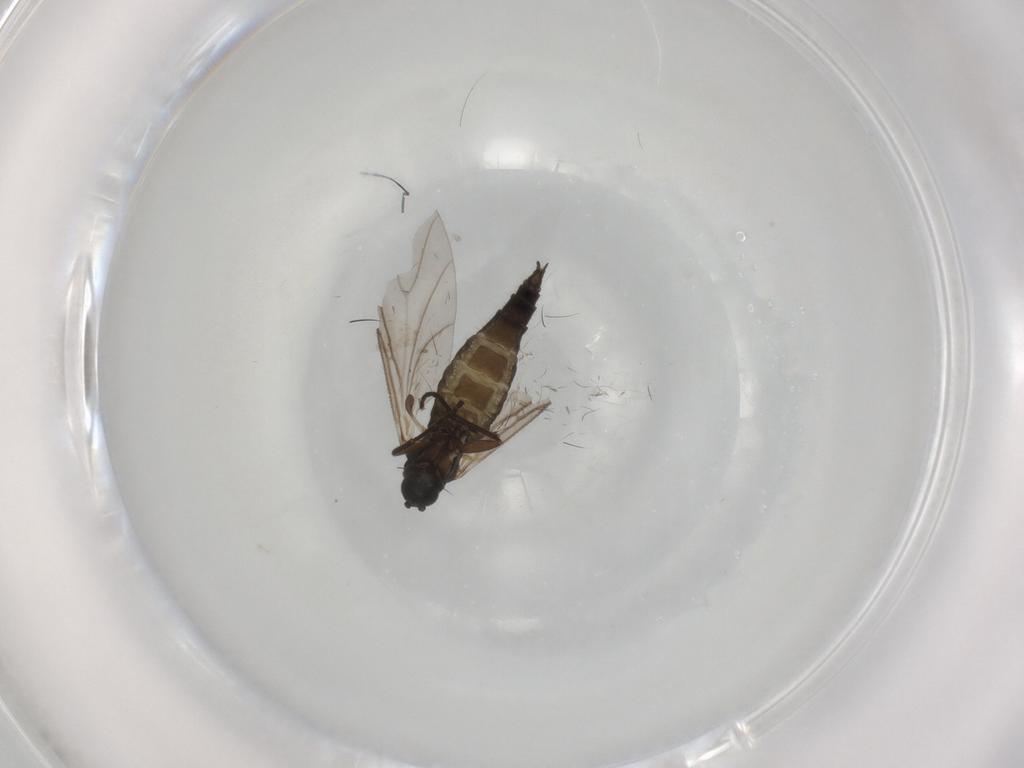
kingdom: Animalia
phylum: Arthropoda
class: Insecta
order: Diptera
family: Sciaridae
